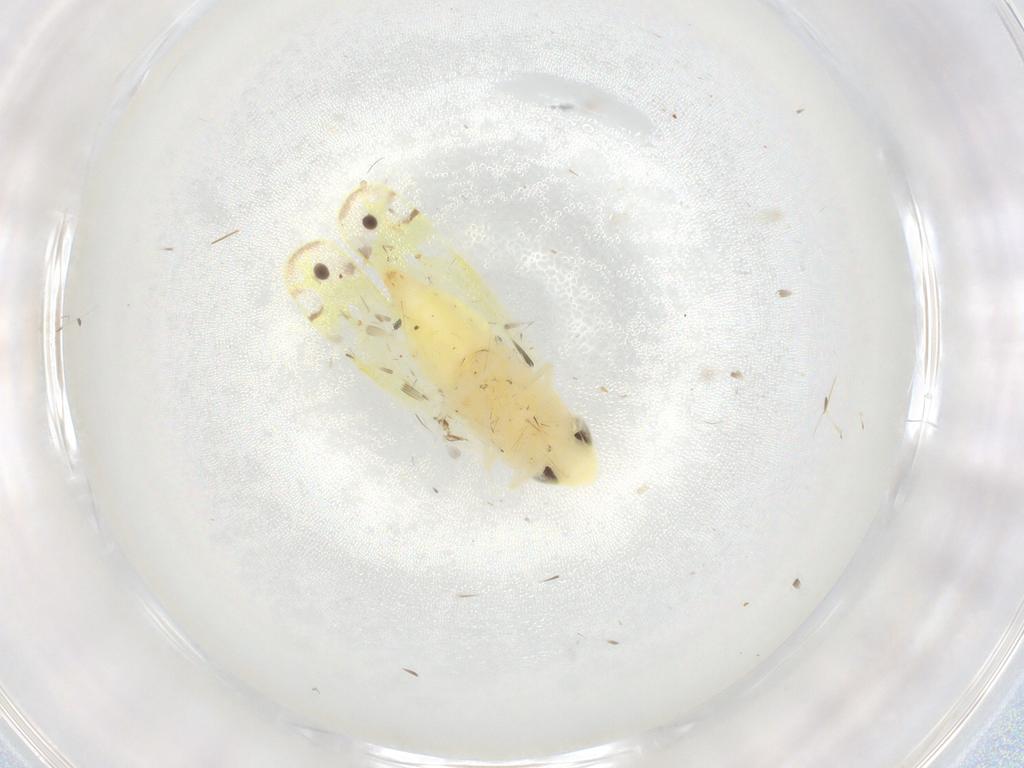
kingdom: Animalia
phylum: Arthropoda
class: Insecta
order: Hemiptera
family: Cicadellidae
